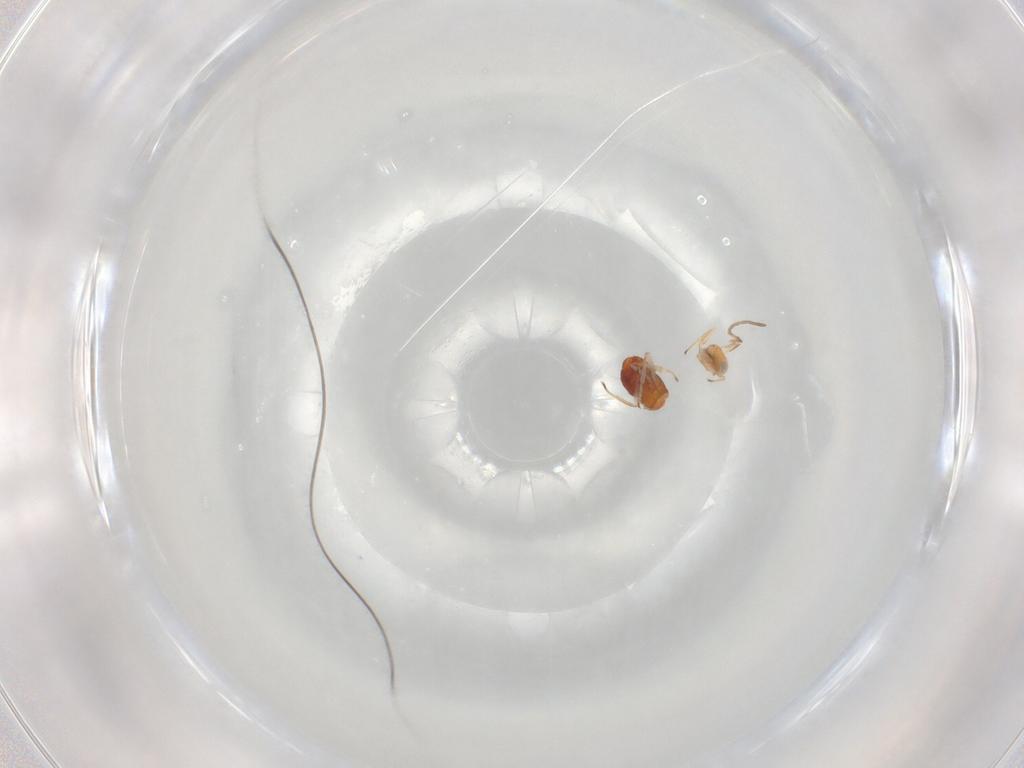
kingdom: Animalia
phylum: Arthropoda
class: Insecta
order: Hymenoptera
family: Encyrtidae
